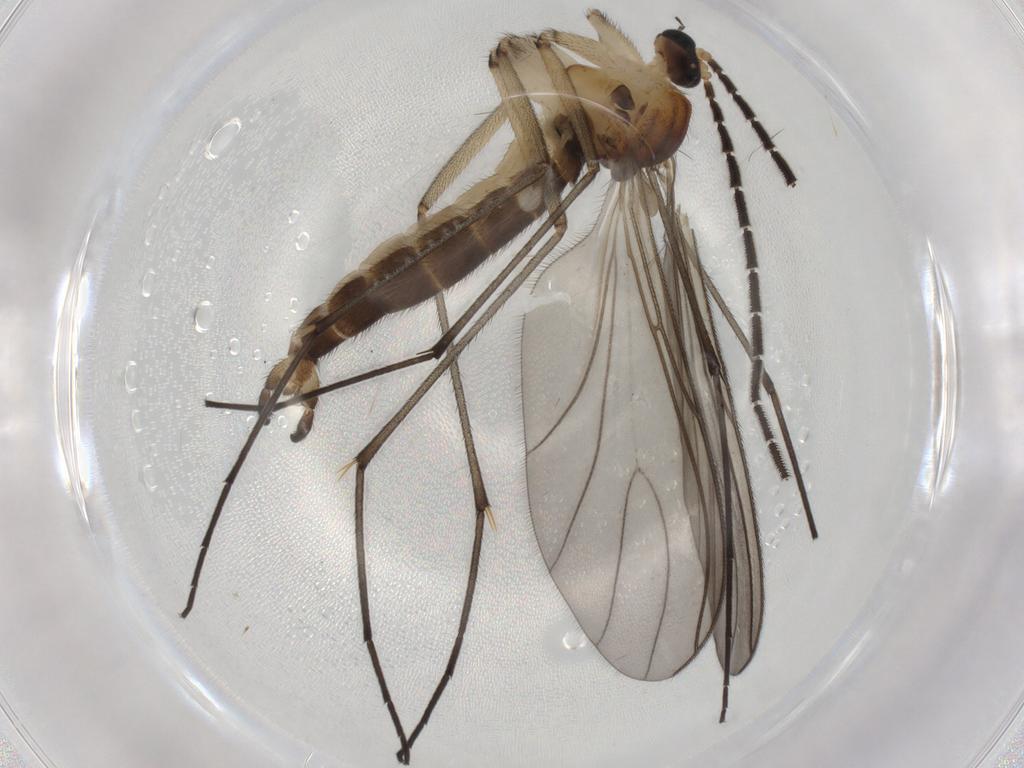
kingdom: Animalia
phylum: Arthropoda
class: Insecta
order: Diptera
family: Sciaridae
